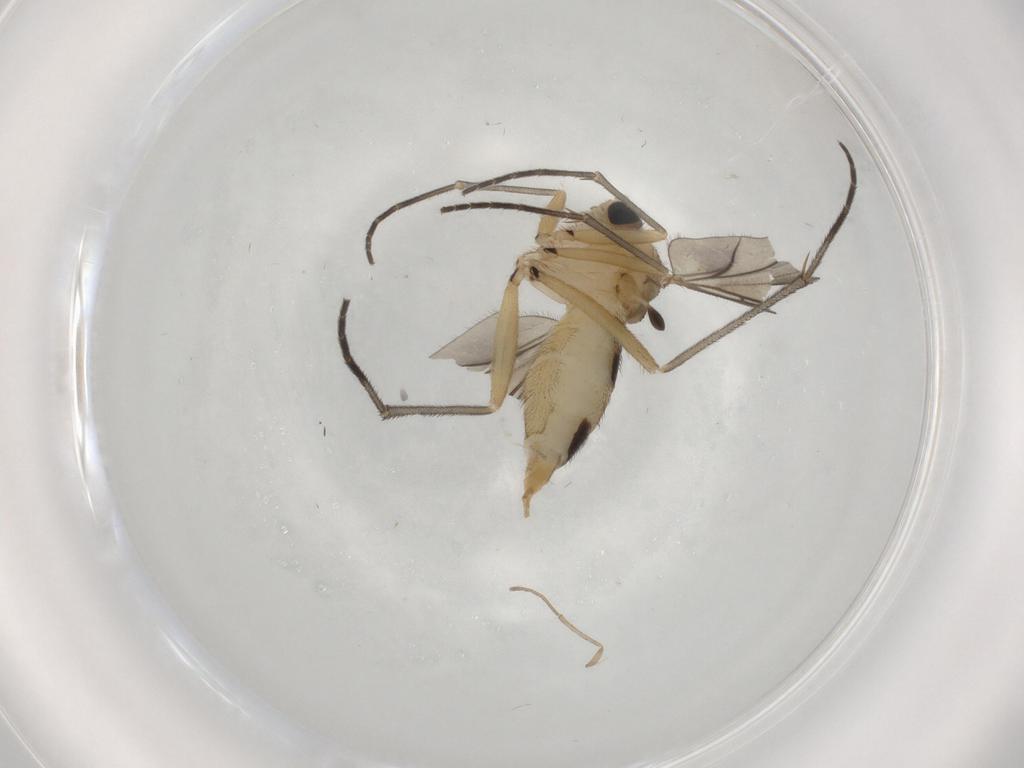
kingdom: Animalia
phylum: Arthropoda
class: Insecta
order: Diptera
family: Sciaridae
